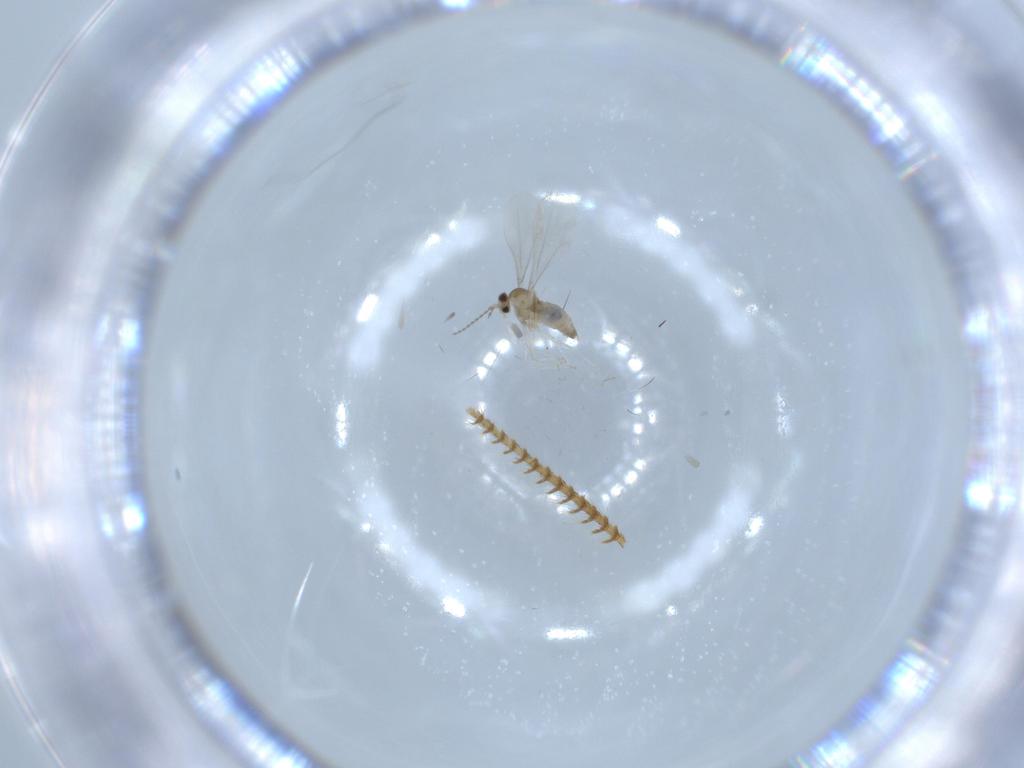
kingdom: Animalia
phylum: Arthropoda
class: Insecta
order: Diptera
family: Cecidomyiidae
